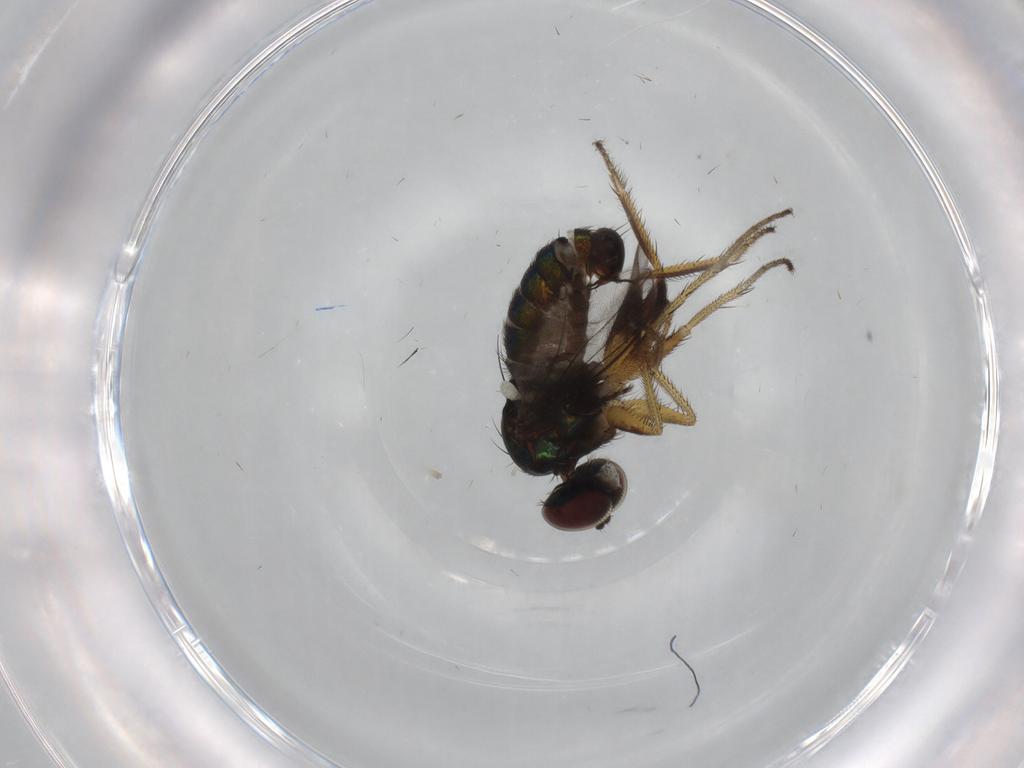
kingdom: Animalia
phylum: Arthropoda
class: Insecta
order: Diptera
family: Dolichopodidae
